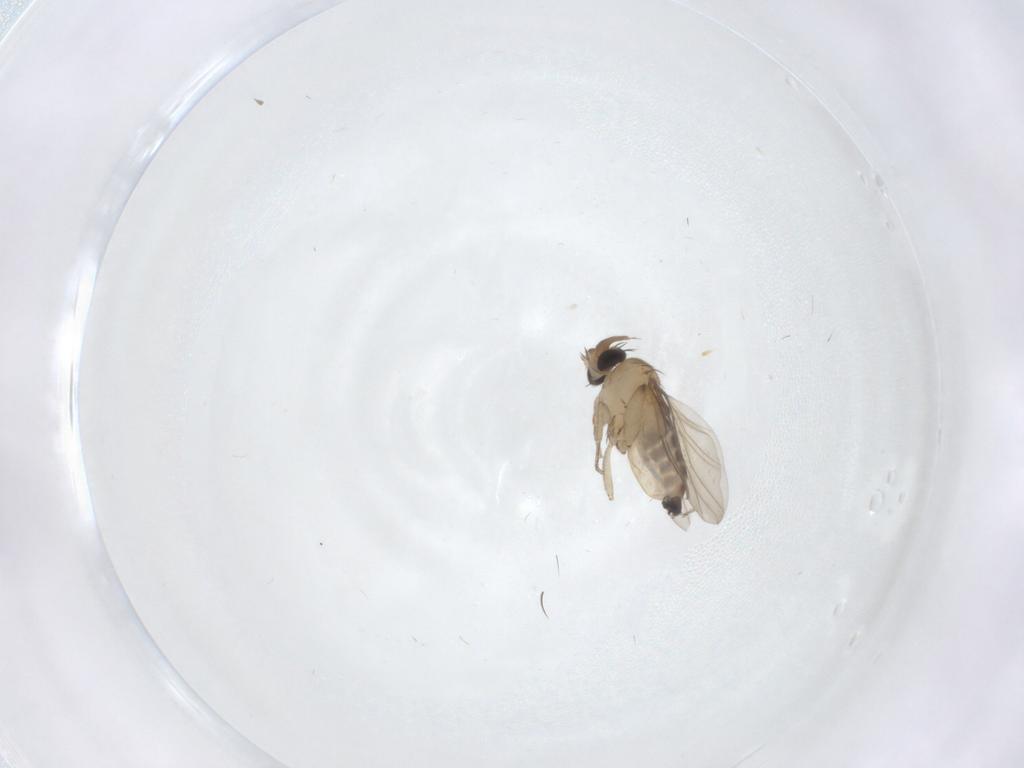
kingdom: Animalia
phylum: Arthropoda
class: Insecta
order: Diptera
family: Phoridae
